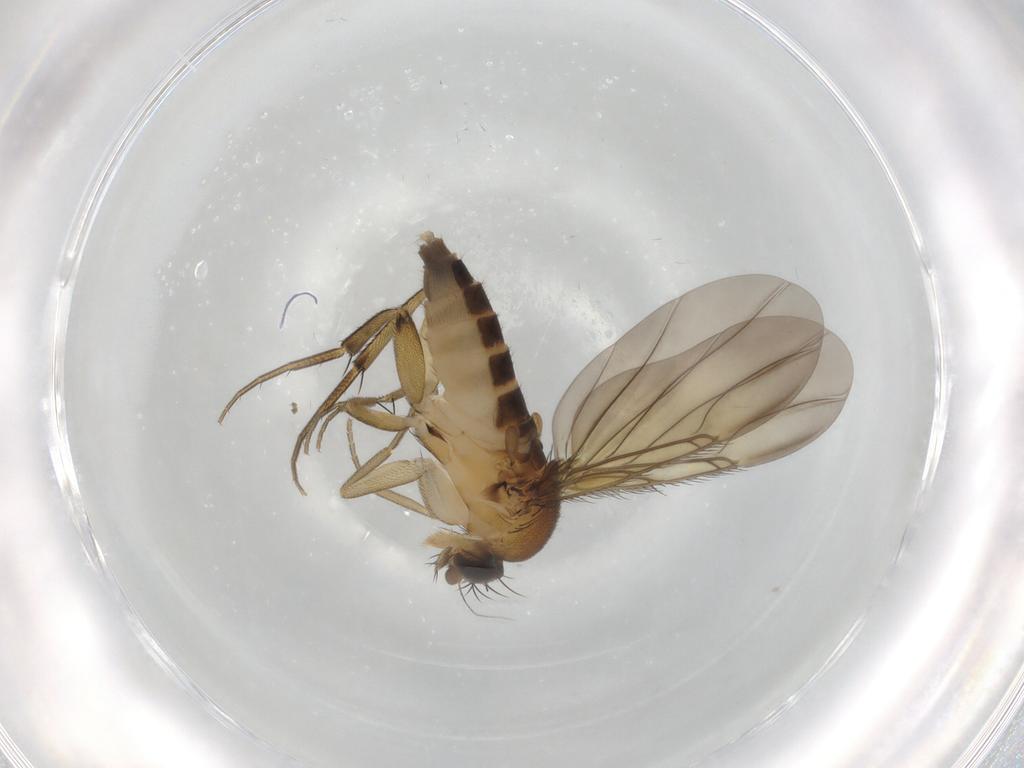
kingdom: Animalia
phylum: Arthropoda
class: Insecta
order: Diptera
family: Phoridae
